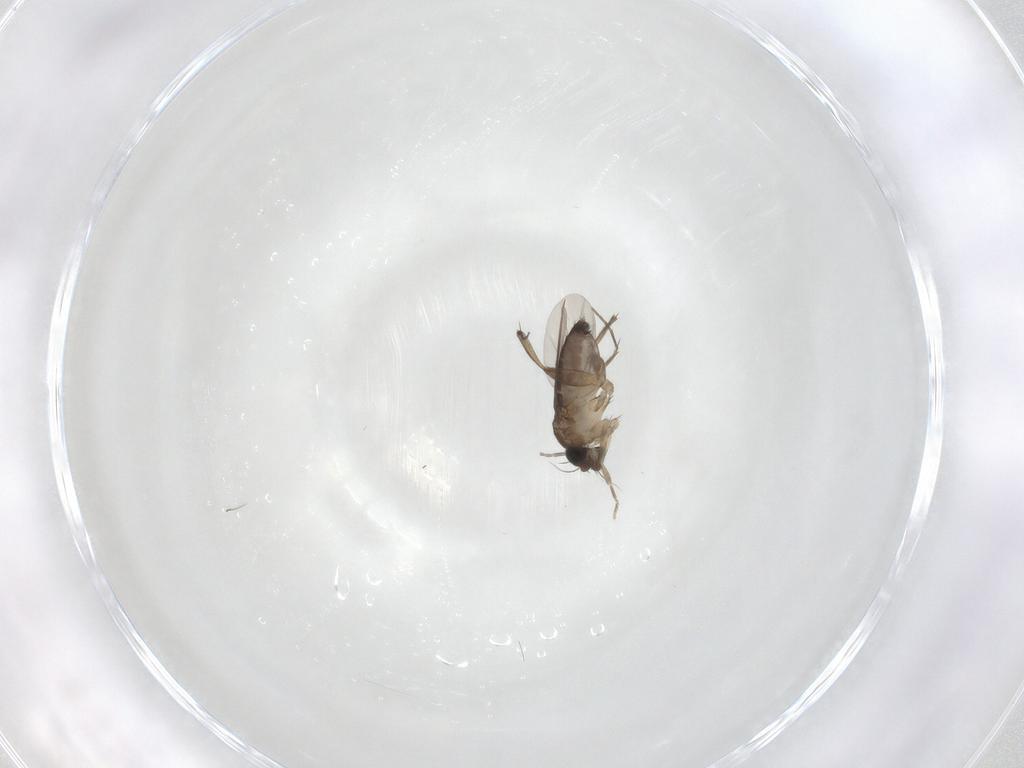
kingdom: Animalia
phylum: Arthropoda
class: Insecta
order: Diptera
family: Phoridae
